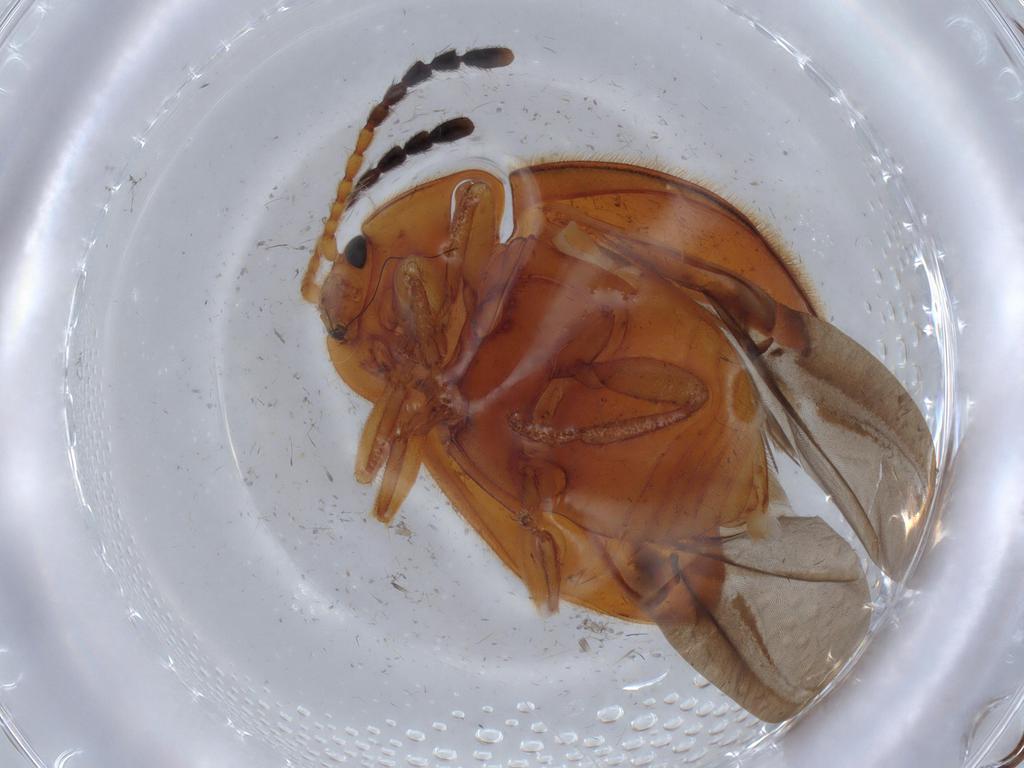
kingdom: Animalia
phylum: Arthropoda
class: Insecta
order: Coleoptera
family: Endomychidae
